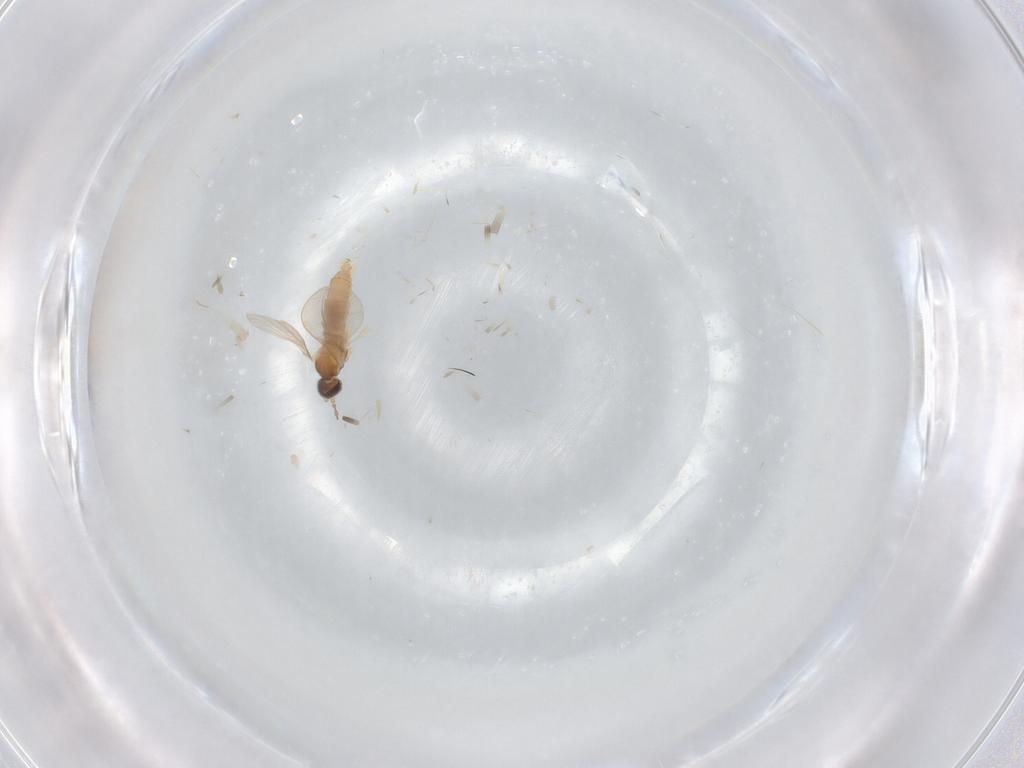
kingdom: Animalia
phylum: Arthropoda
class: Insecta
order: Diptera
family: Cecidomyiidae
